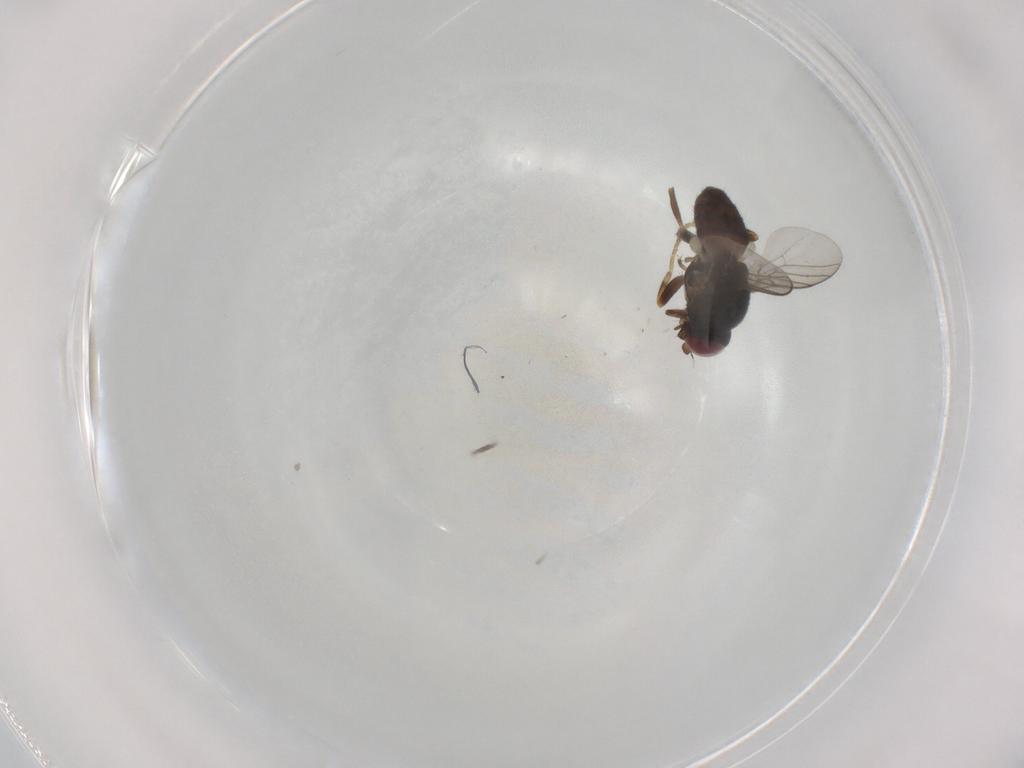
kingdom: Animalia
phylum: Arthropoda
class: Insecta
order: Diptera
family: Chloropidae
